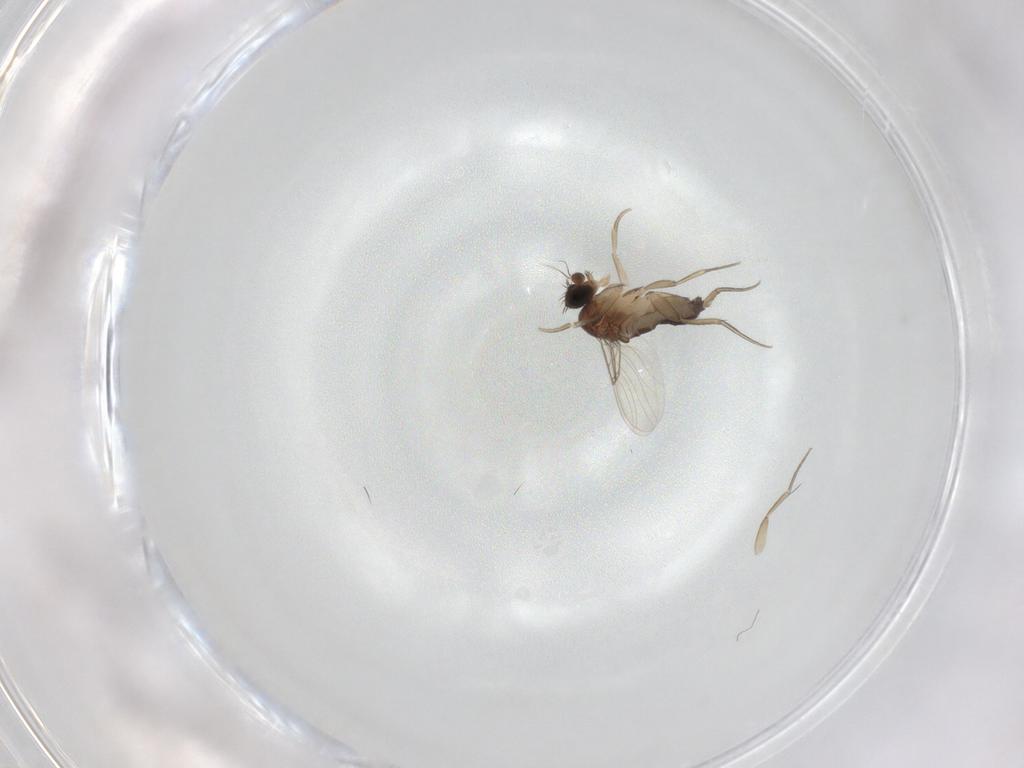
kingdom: Animalia
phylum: Arthropoda
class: Insecta
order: Diptera
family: Phoridae
